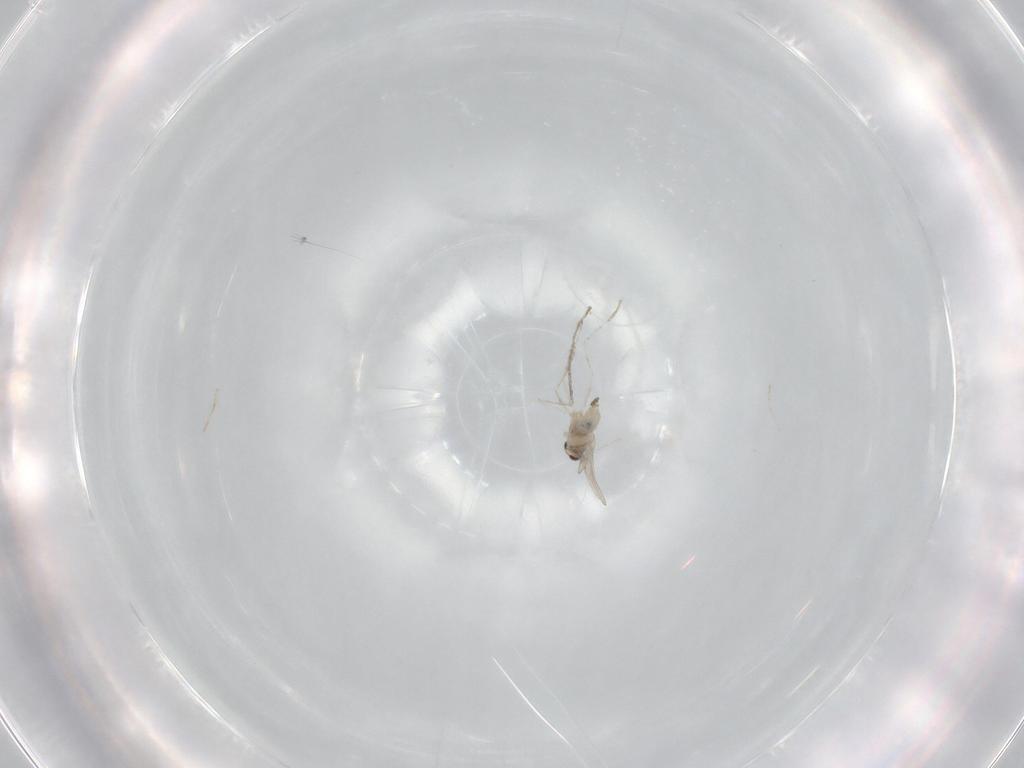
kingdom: Animalia
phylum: Arthropoda
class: Insecta
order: Diptera
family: Cecidomyiidae
